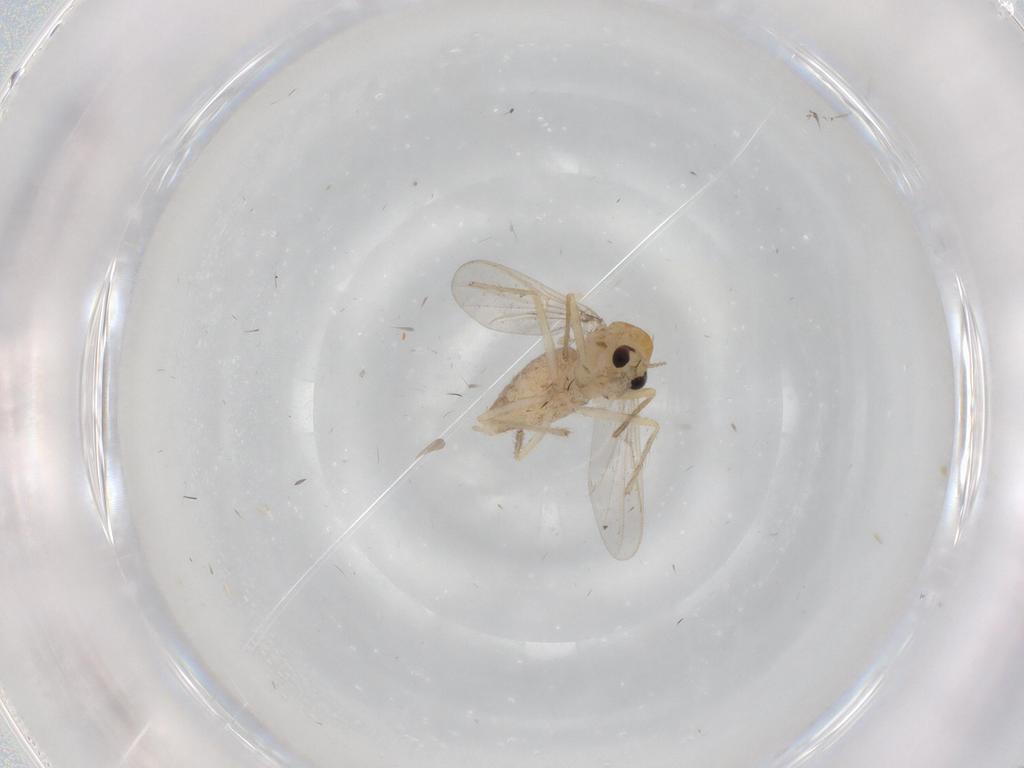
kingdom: Animalia
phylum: Arthropoda
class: Insecta
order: Diptera
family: Chironomidae
